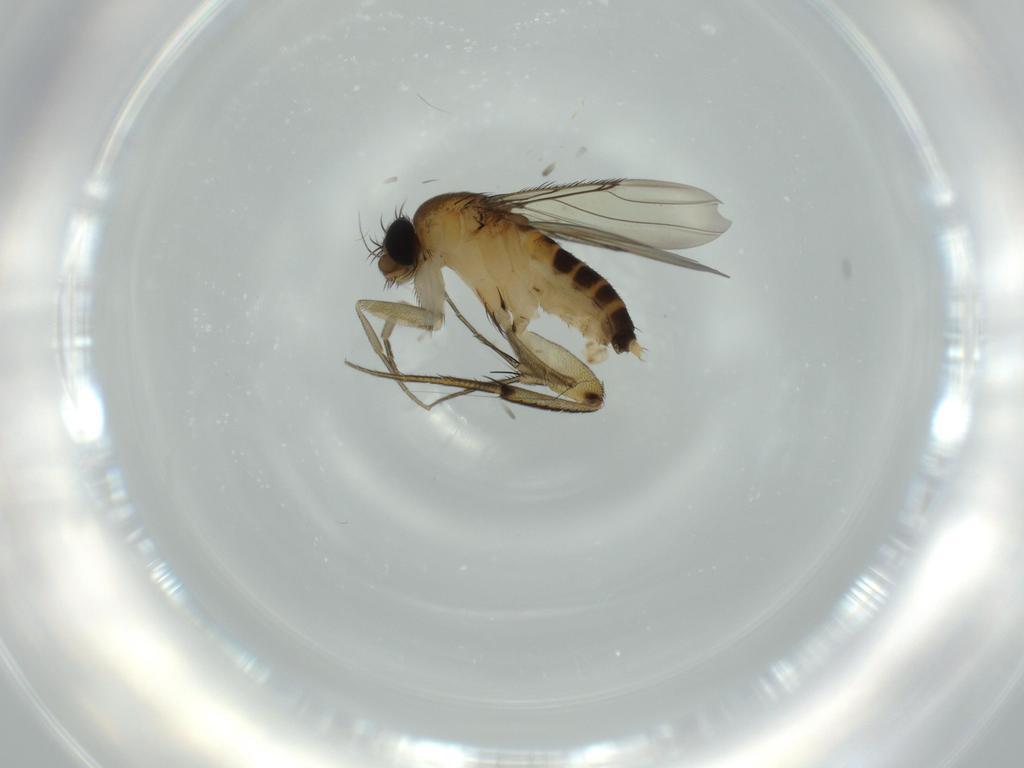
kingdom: Animalia
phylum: Arthropoda
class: Insecta
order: Diptera
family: Phoridae
